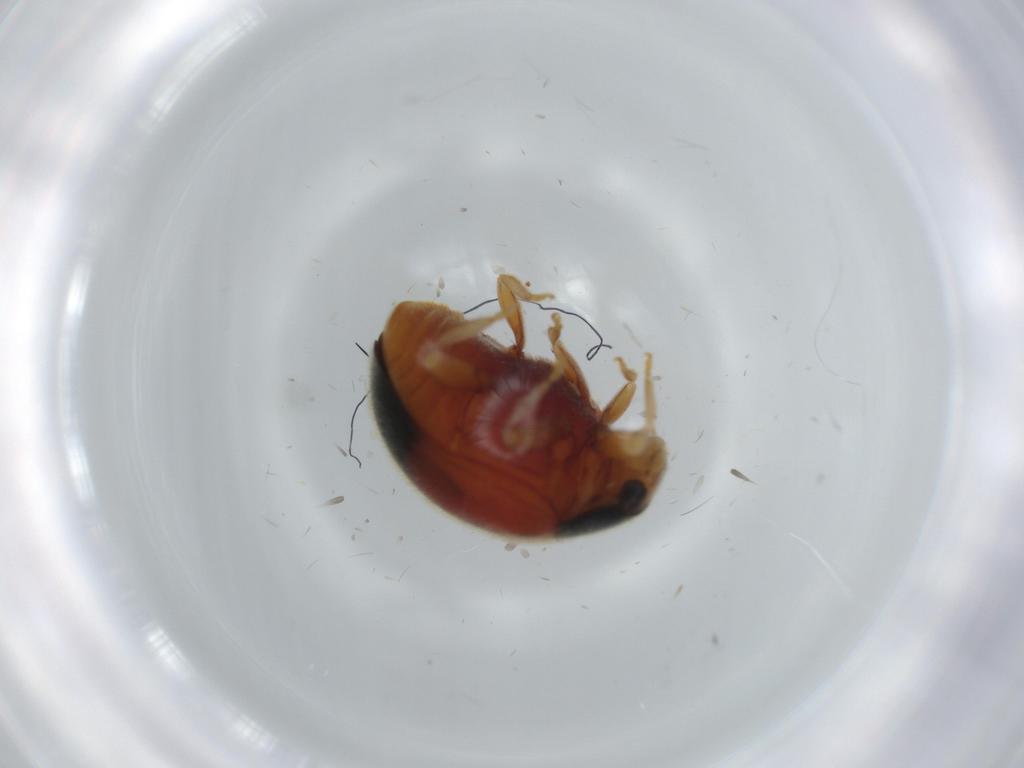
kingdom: Animalia
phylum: Arthropoda
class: Insecta
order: Coleoptera
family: Coccinellidae
